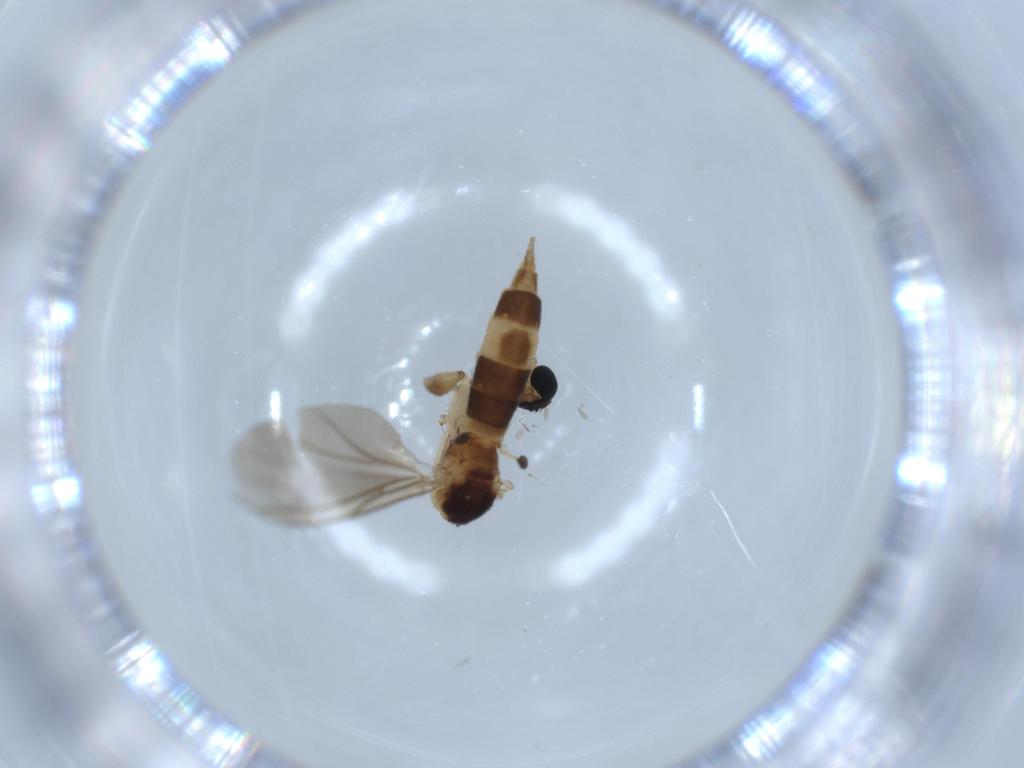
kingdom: Animalia
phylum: Arthropoda
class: Insecta
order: Diptera
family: Sciaridae
